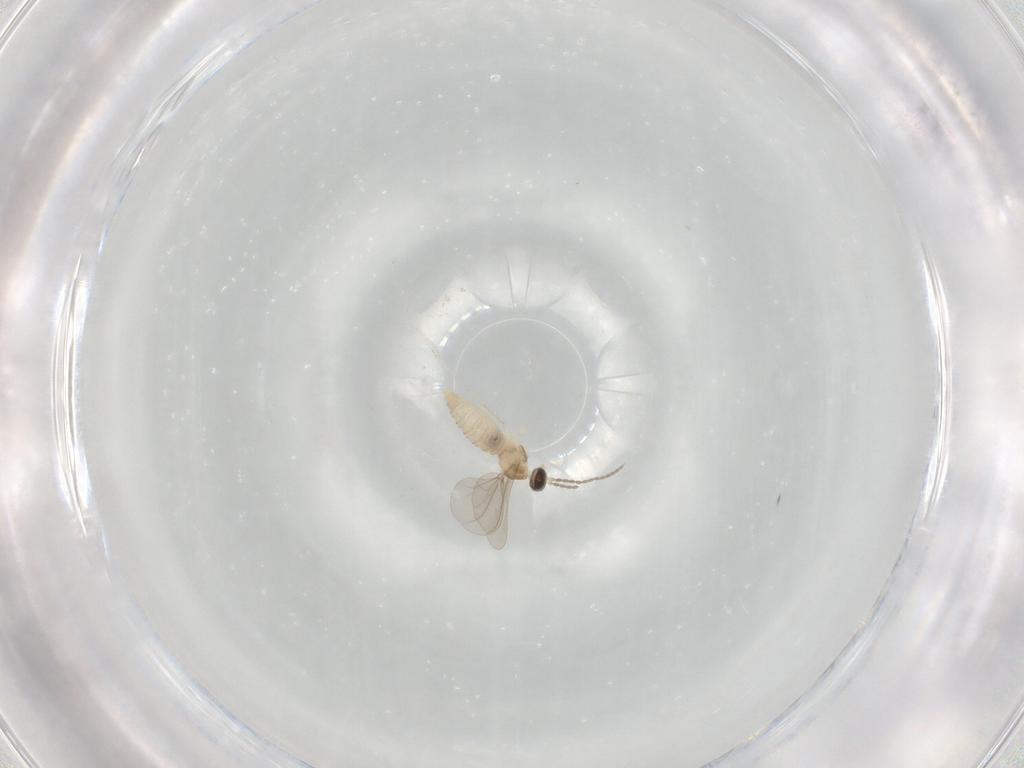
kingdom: Animalia
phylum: Arthropoda
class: Insecta
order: Diptera
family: Cecidomyiidae
